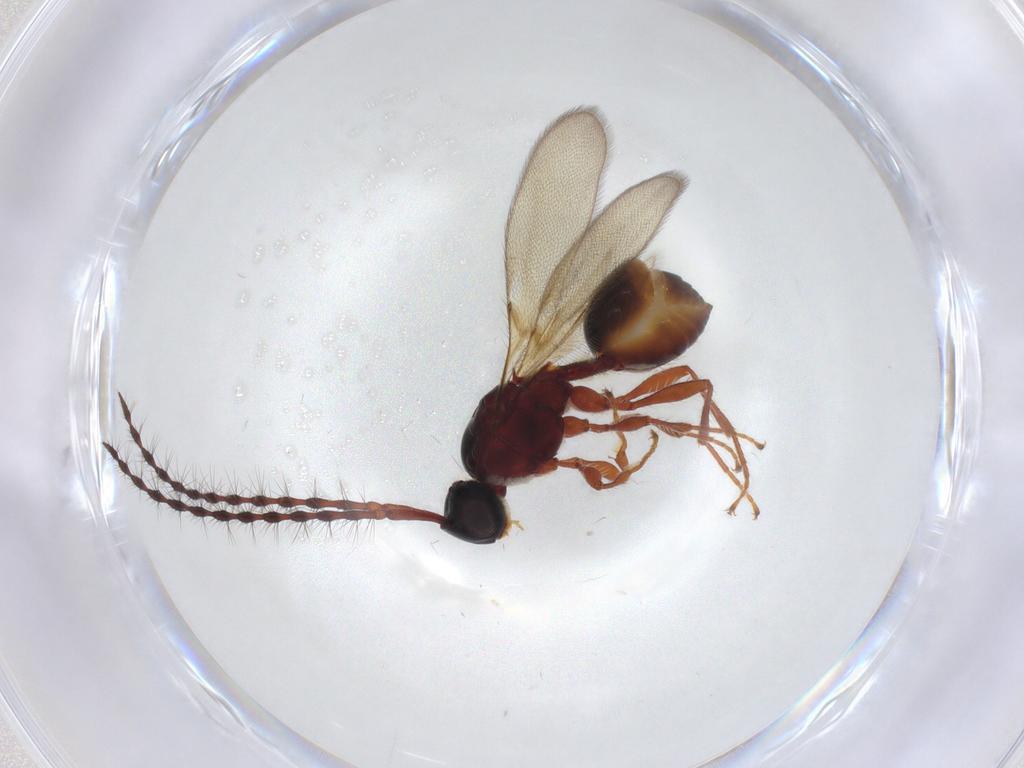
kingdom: Animalia
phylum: Arthropoda
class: Insecta
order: Hymenoptera
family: Diapriidae
